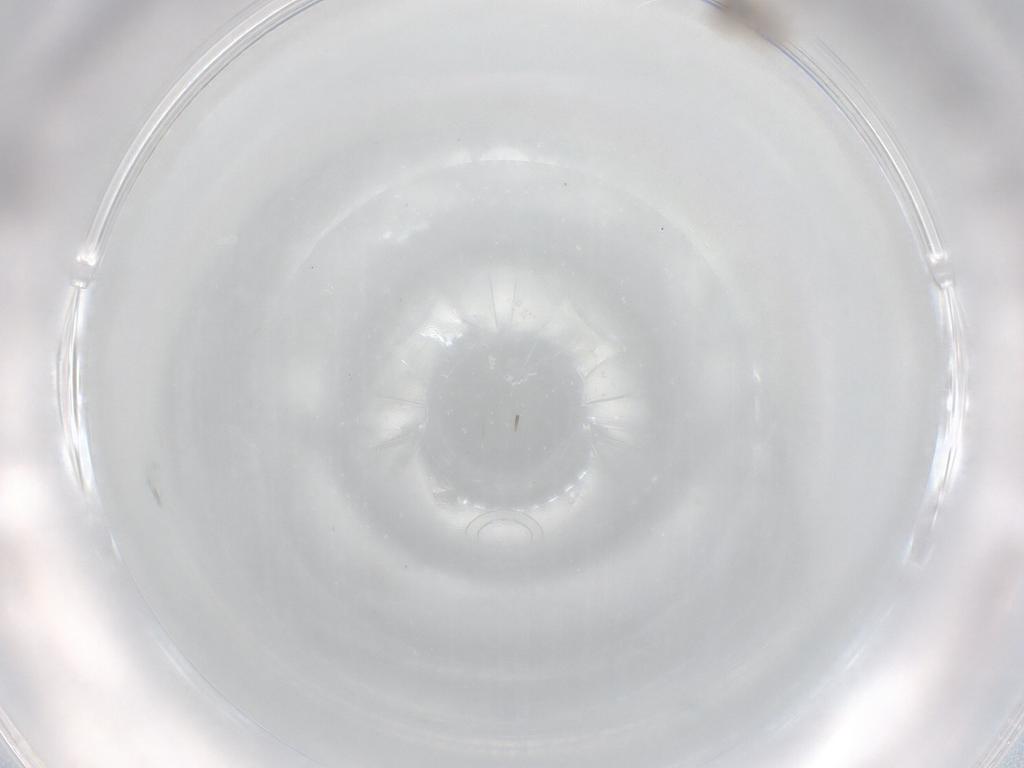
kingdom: Animalia
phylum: Arthropoda
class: Insecta
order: Diptera
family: Psychodidae
